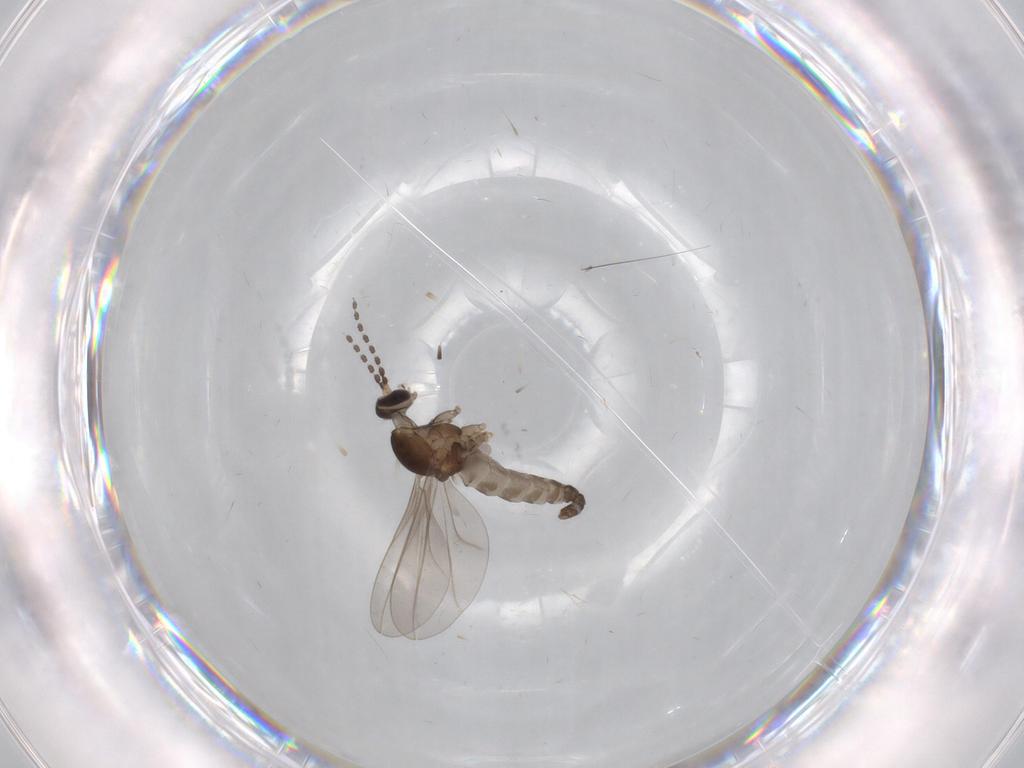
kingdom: Animalia
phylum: Arthropoda
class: Insecta
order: Diptera
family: Cecidomyiidae
